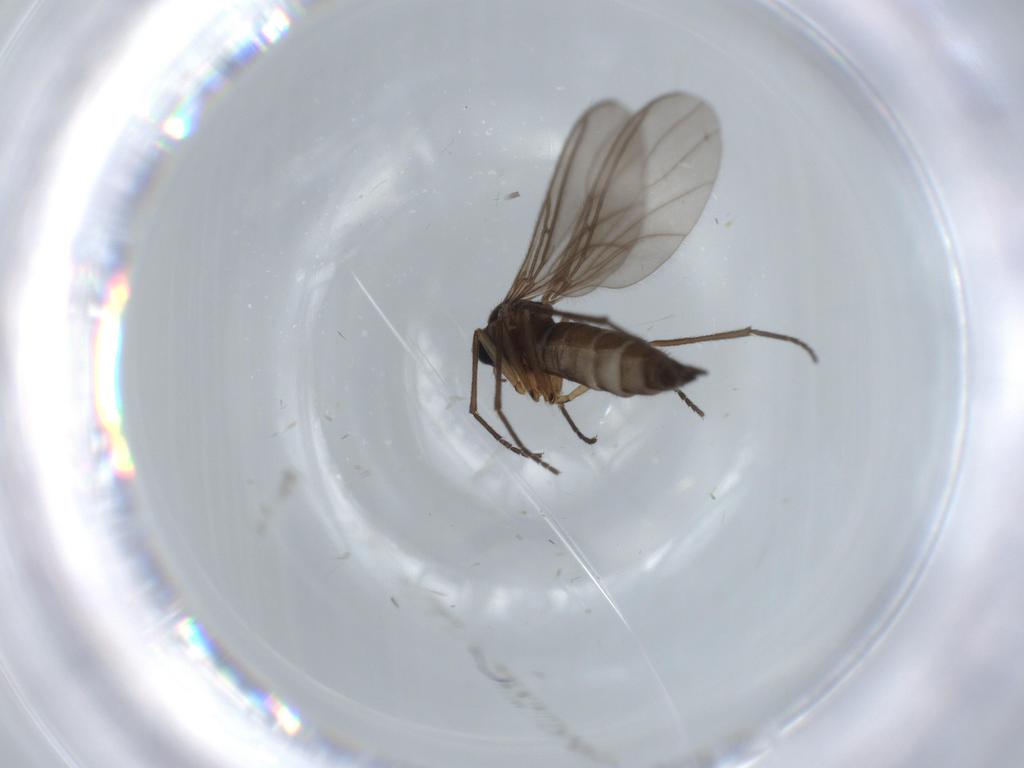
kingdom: Animalia
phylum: Arthropoda
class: Insecta
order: Diptera
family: Sciaridae
